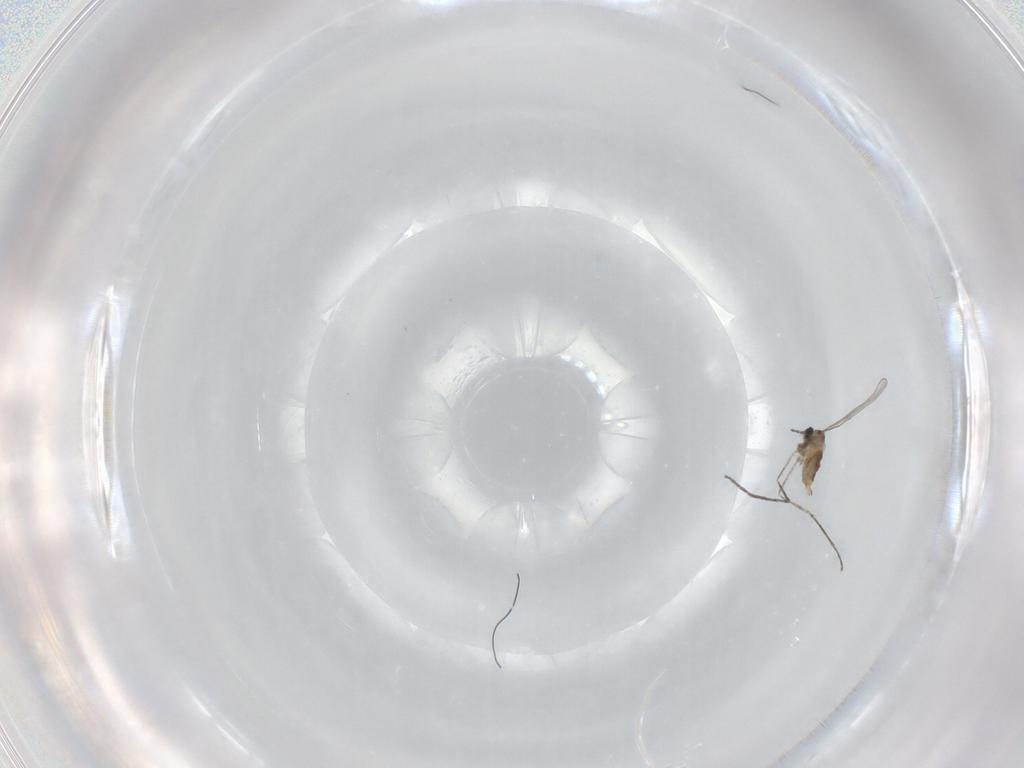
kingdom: Animalia
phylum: Arthropoda
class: Insecta
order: Diptera
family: Cecidomyiidae
